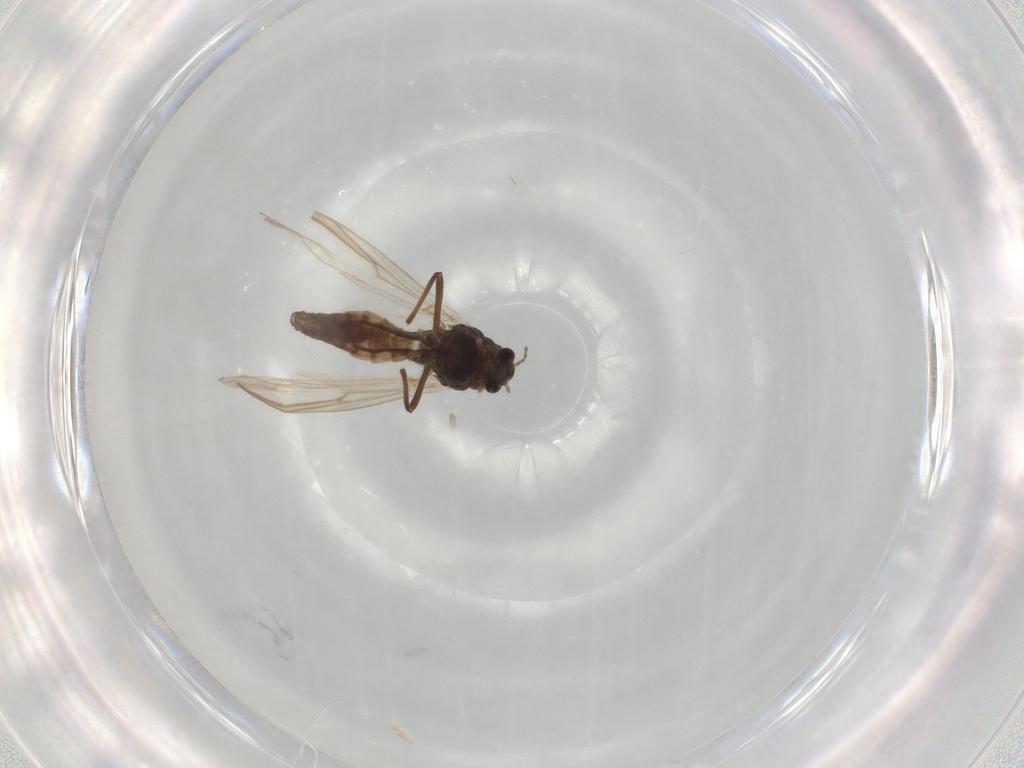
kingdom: Animalia
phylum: Arthropoda
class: Insecta
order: Diptera
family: Chironomidae
